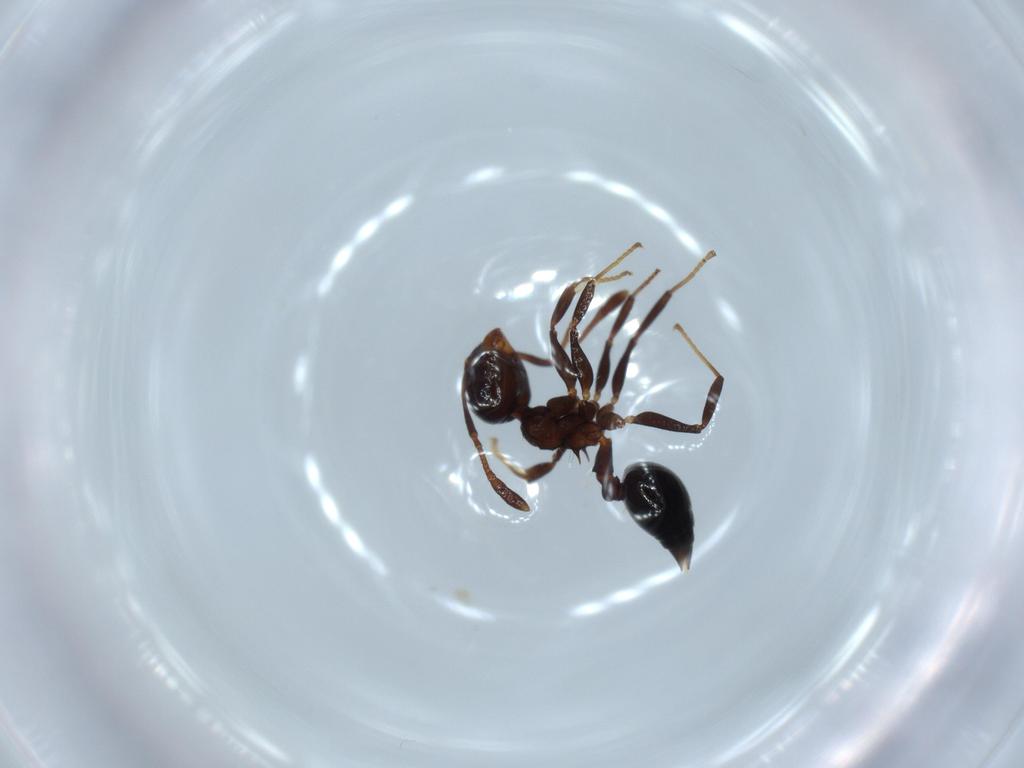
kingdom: Animalia
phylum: Arthropoda
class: Insecta
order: Hymenoptera
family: Formicidae
